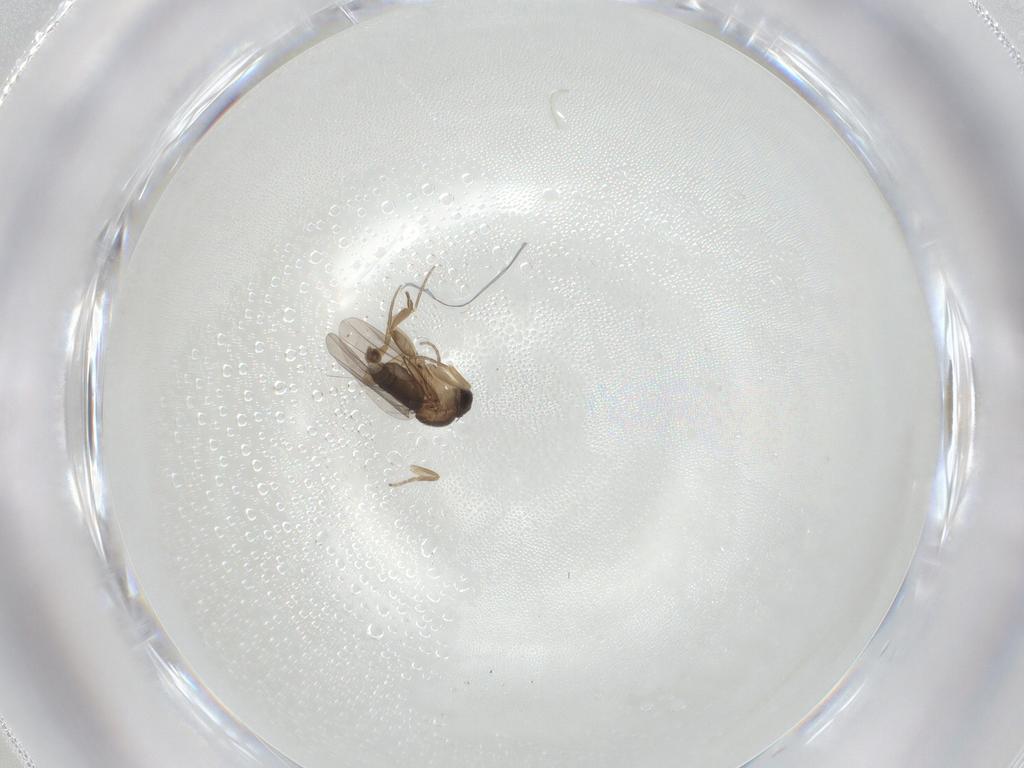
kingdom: Animalia
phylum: Arthropoda
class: Insecta
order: Diptera
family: Phoridae
